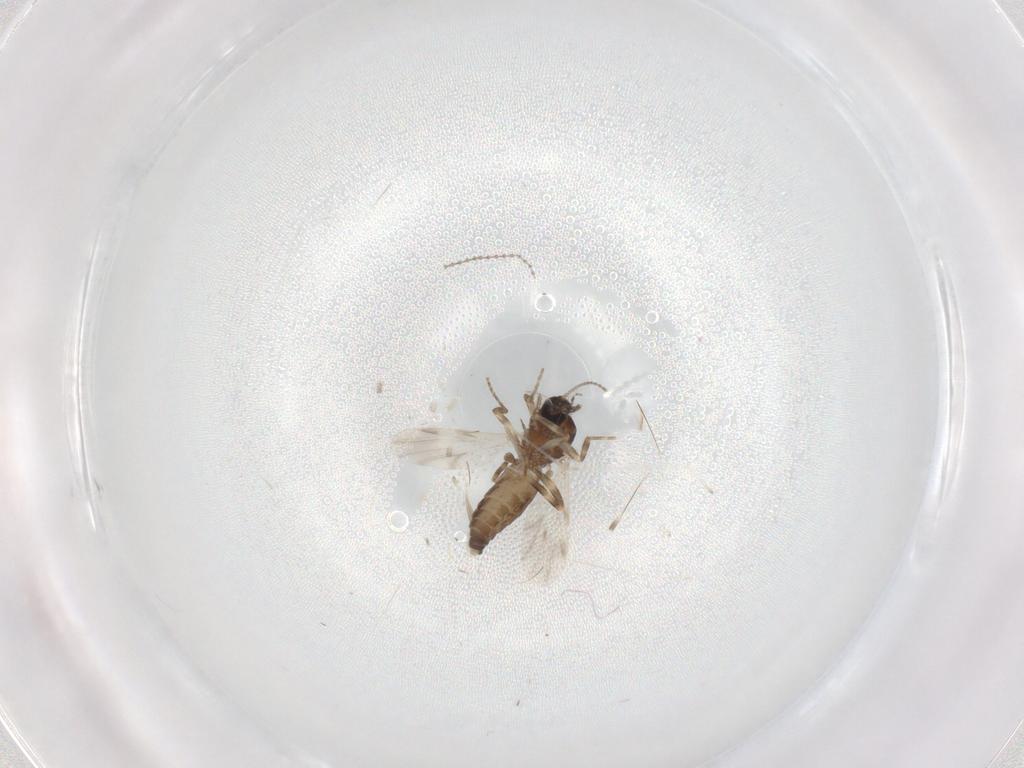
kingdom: Animalia
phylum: Arthropoda
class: Insecta
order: Diptera
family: Ceratopogonidae
